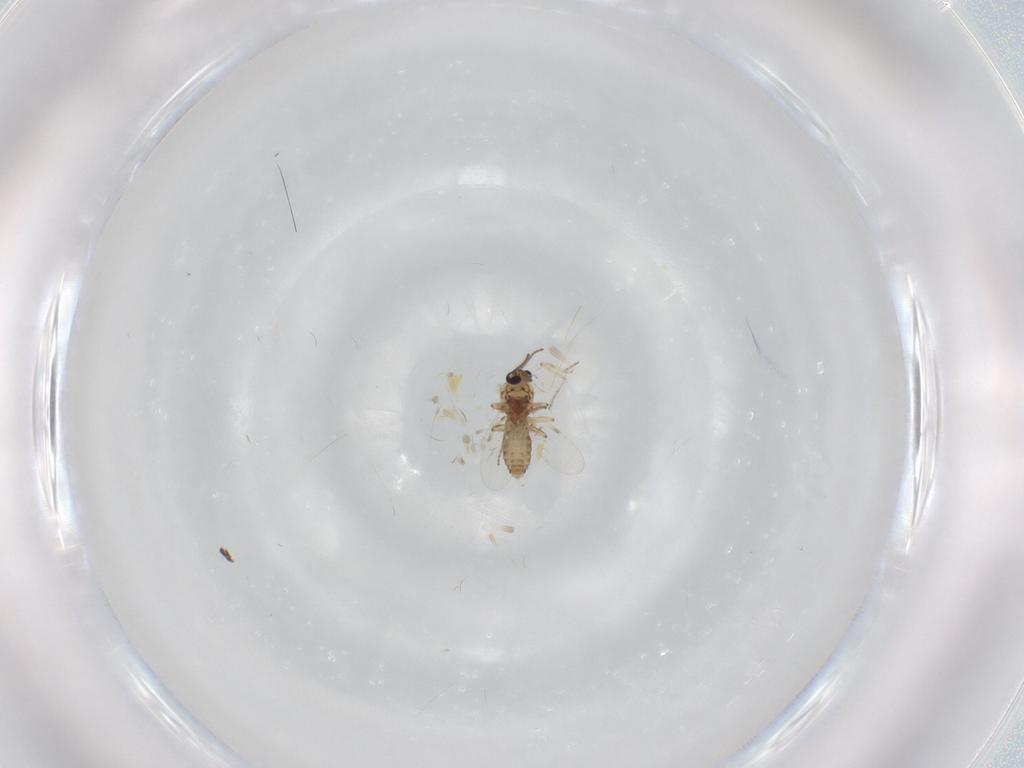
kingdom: Animalia
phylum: Arthropoda
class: Insecta
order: Diptera
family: Ceratopogonidae
